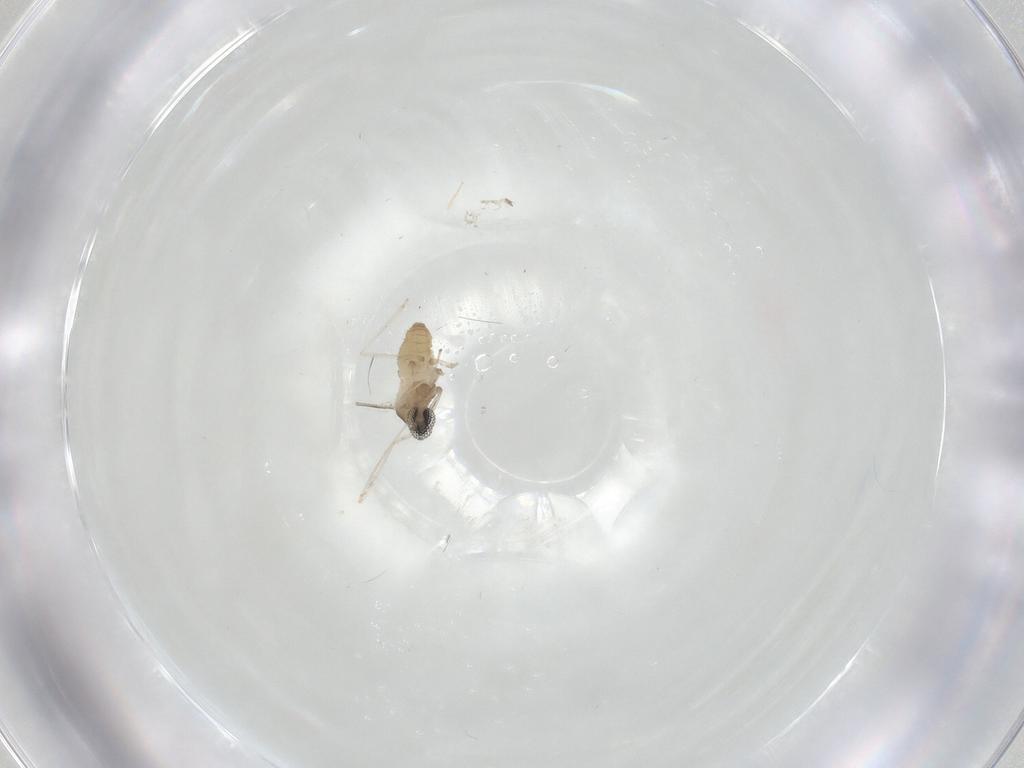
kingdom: Animalia
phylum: Arthropoda
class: Insecta
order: Diptera
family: Cecidomyiidae
